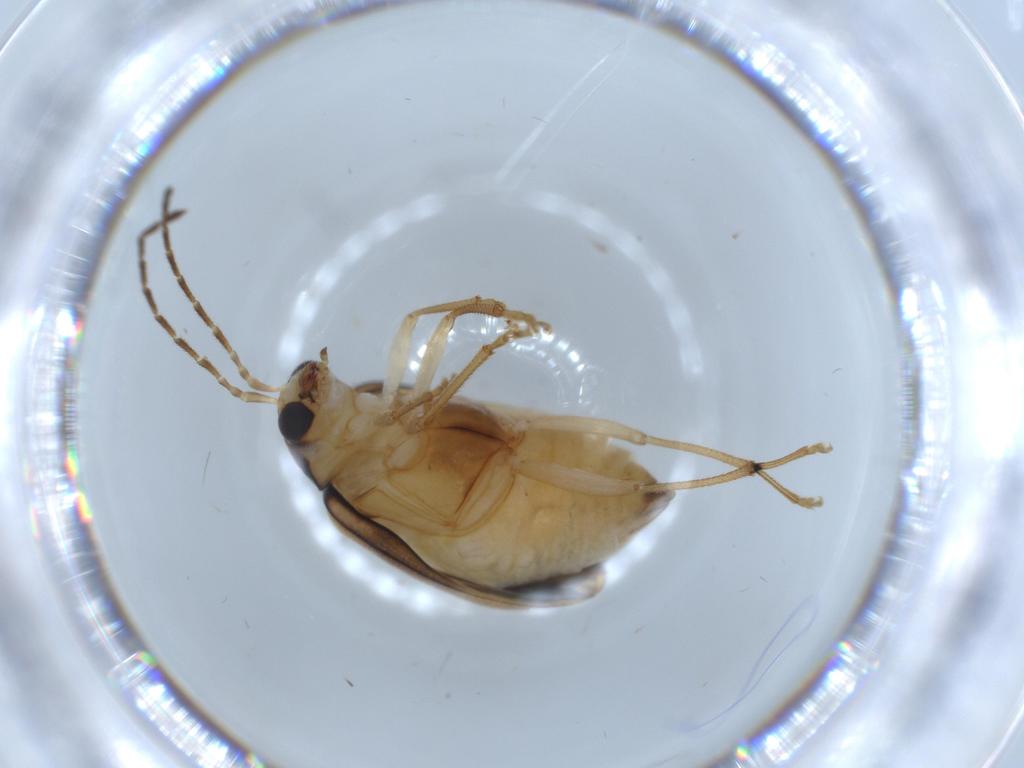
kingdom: Animalia
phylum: Arthropoda
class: Insecta
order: Coleoptera
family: Chrysomelidae
